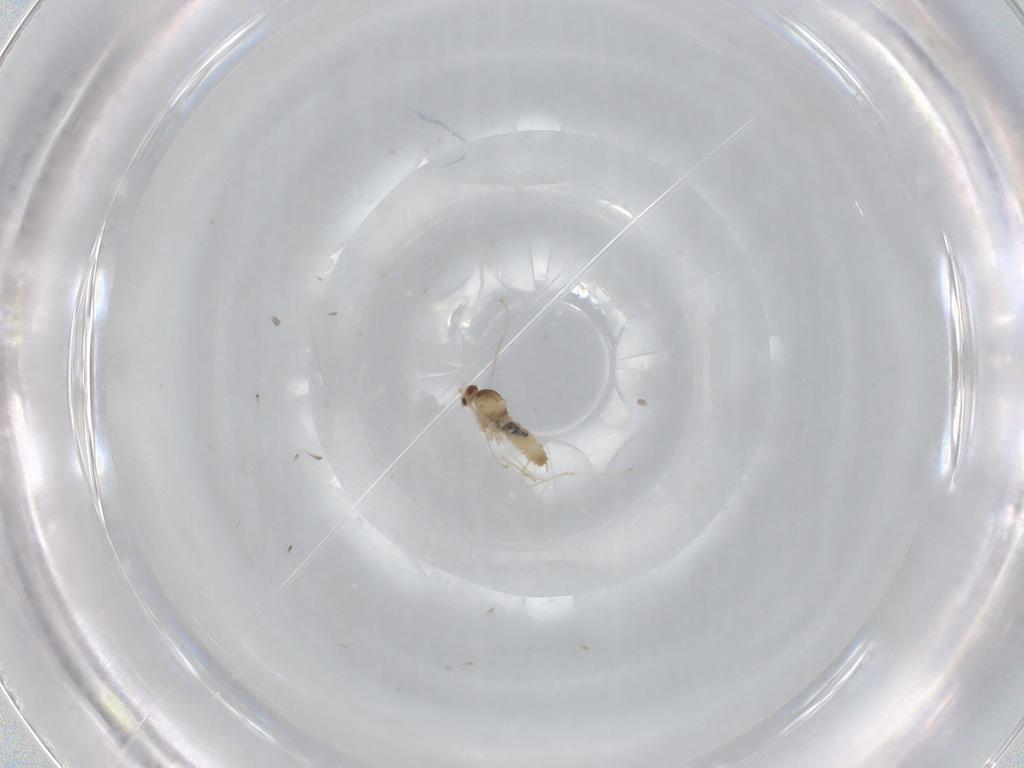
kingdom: Animalia
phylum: Arthropoda
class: Insecta
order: Diptera
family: Cecidomyiidae
